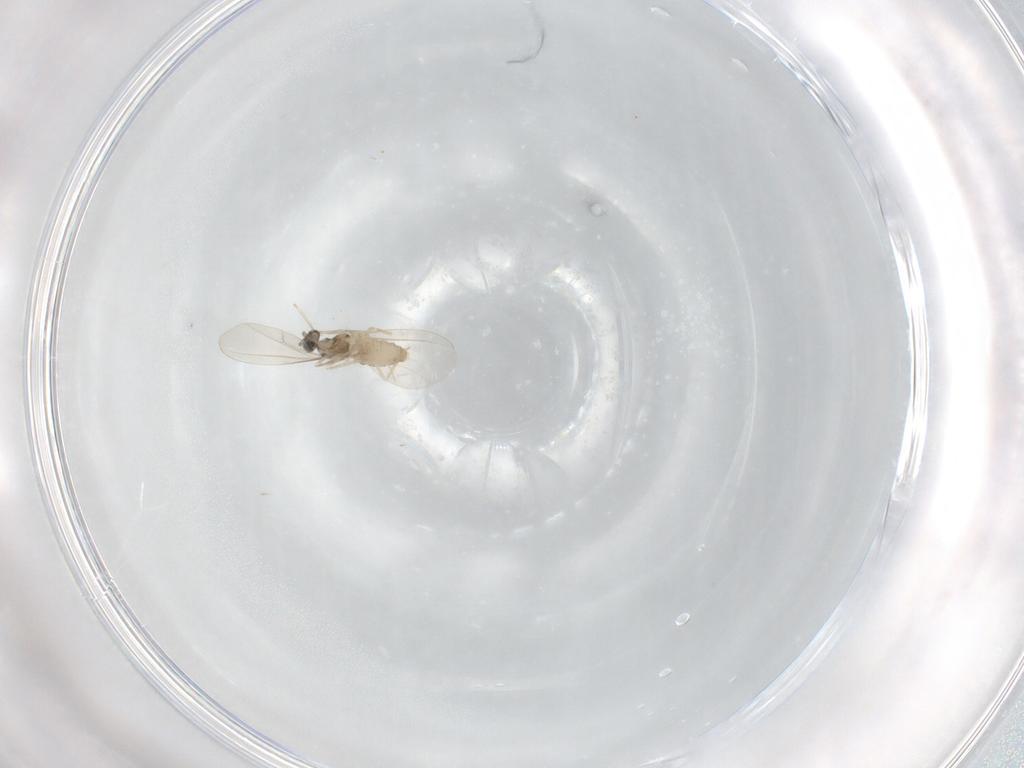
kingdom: Animalia
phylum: Arthropoda
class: Insecta
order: Diptera
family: Cecidomyiidae
